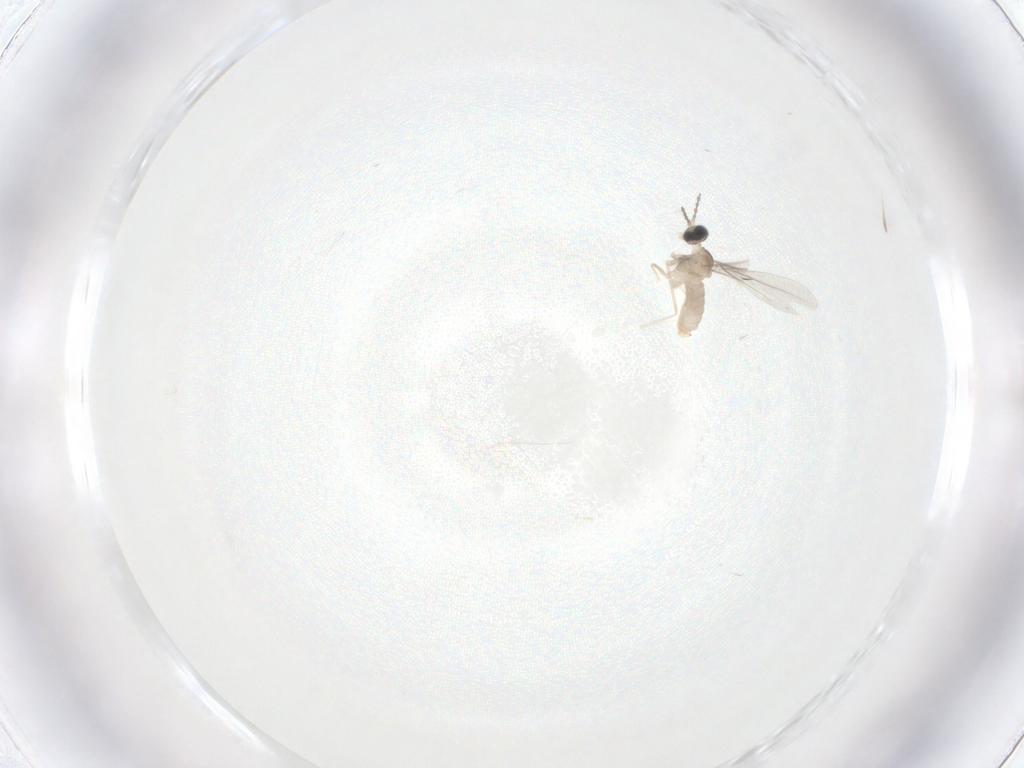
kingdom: Animalia
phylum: Arthropoda
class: Insecta
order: Diptera
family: Cecidomyiidae
